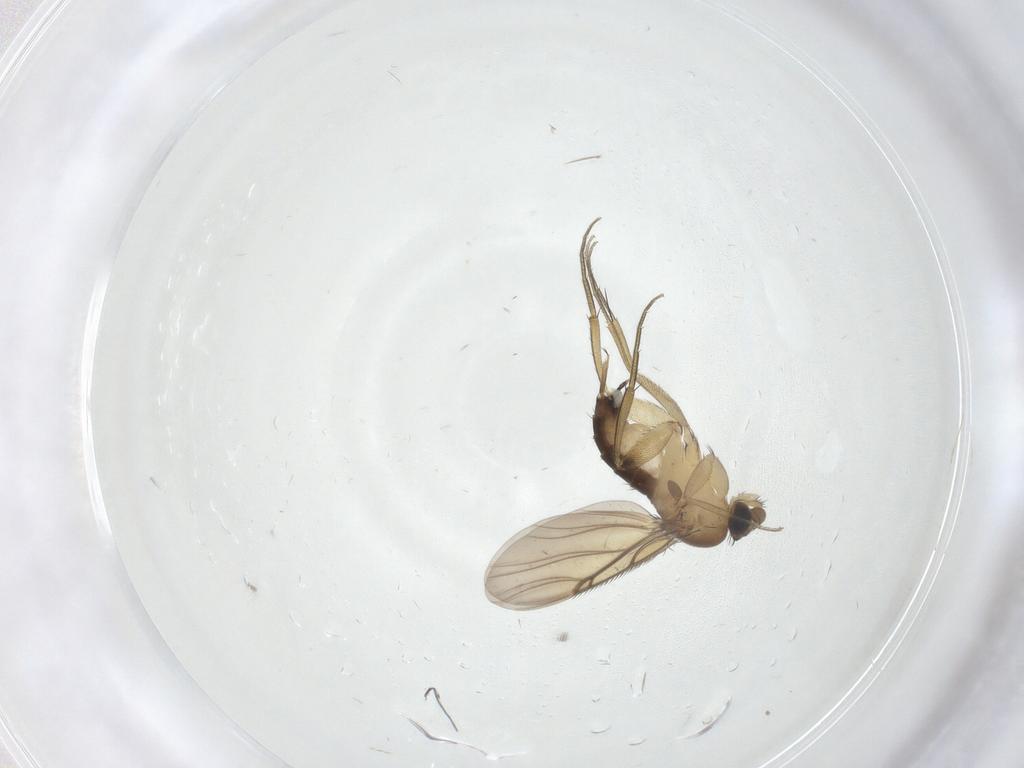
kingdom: Animalia
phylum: Arthropoda
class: Insecta
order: Diptera
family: Phoridae
